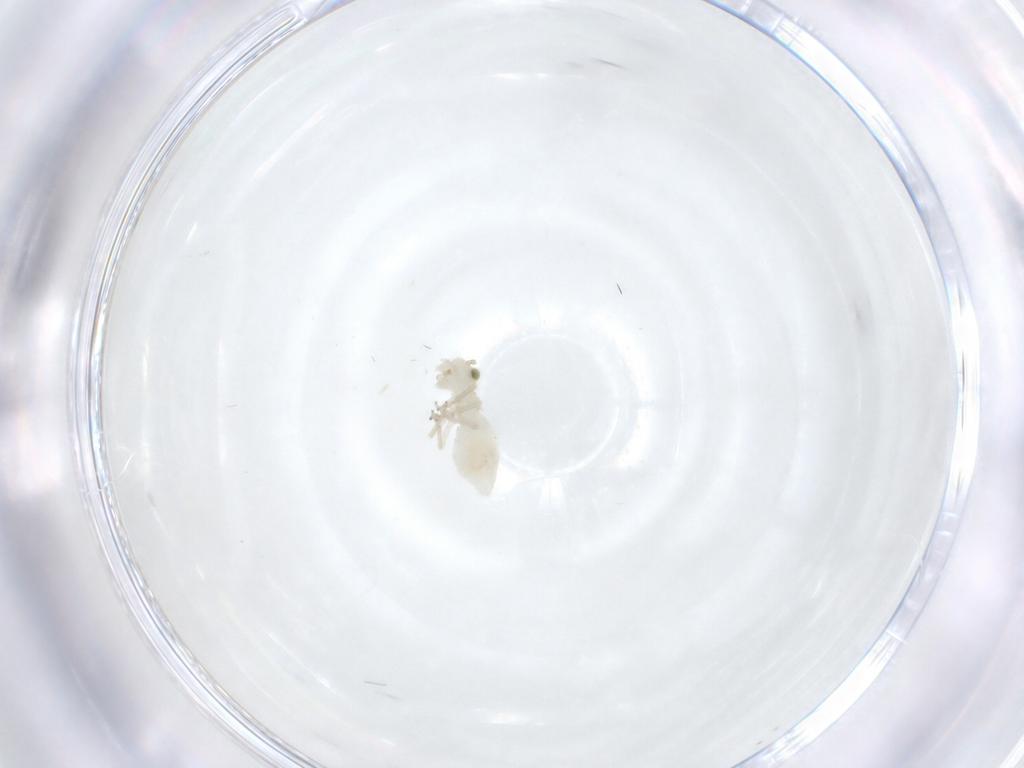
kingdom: Animalia
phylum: Arthropoda
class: Insecta
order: Psocodea
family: Caeciliusidae
